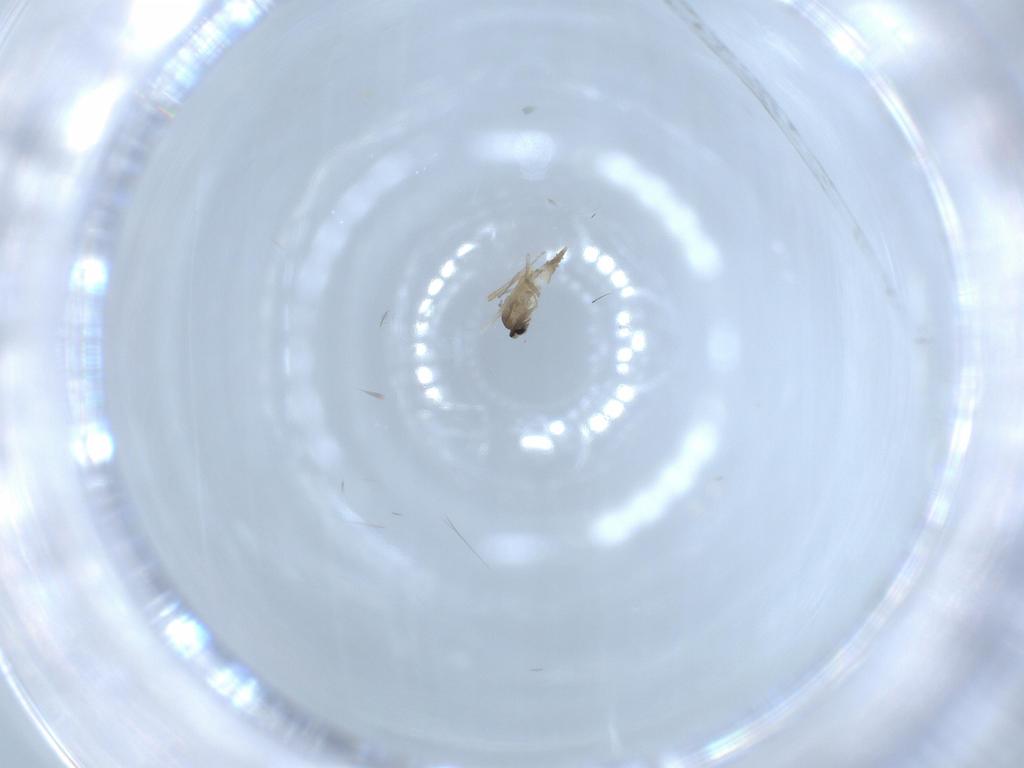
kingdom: Animalia
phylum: Arthropoda
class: Insecta
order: Diptera
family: Cecidomyiidae
